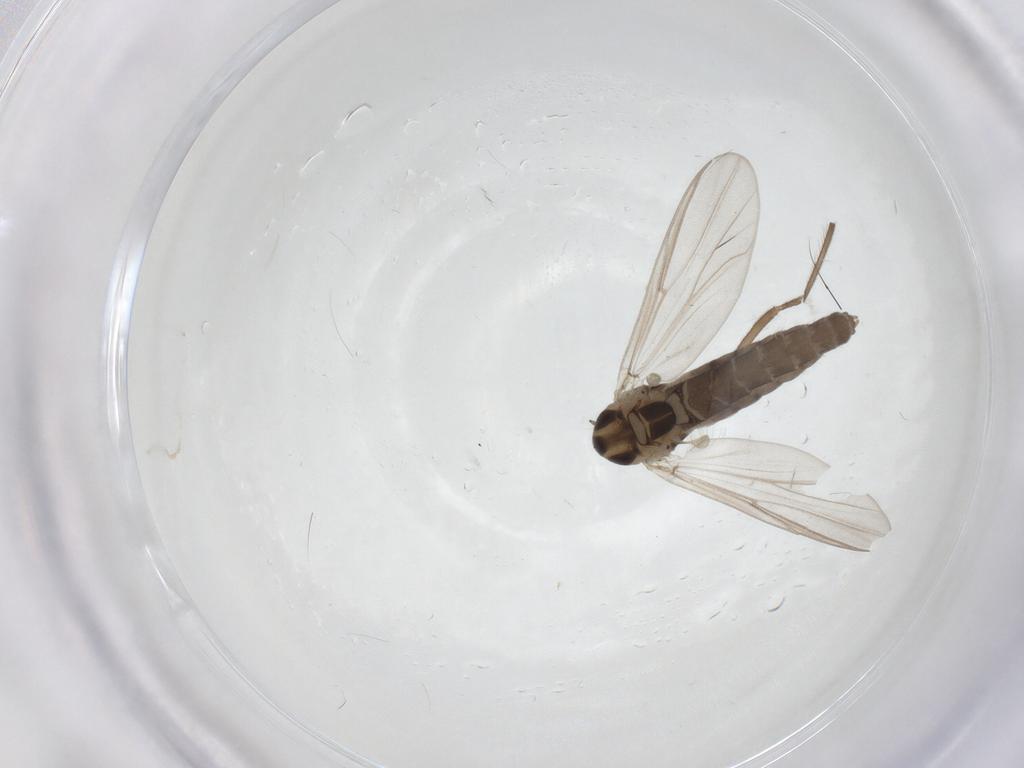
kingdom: Animalia
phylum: Arthropoda
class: Insecta
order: Diptera
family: Chironomidae
